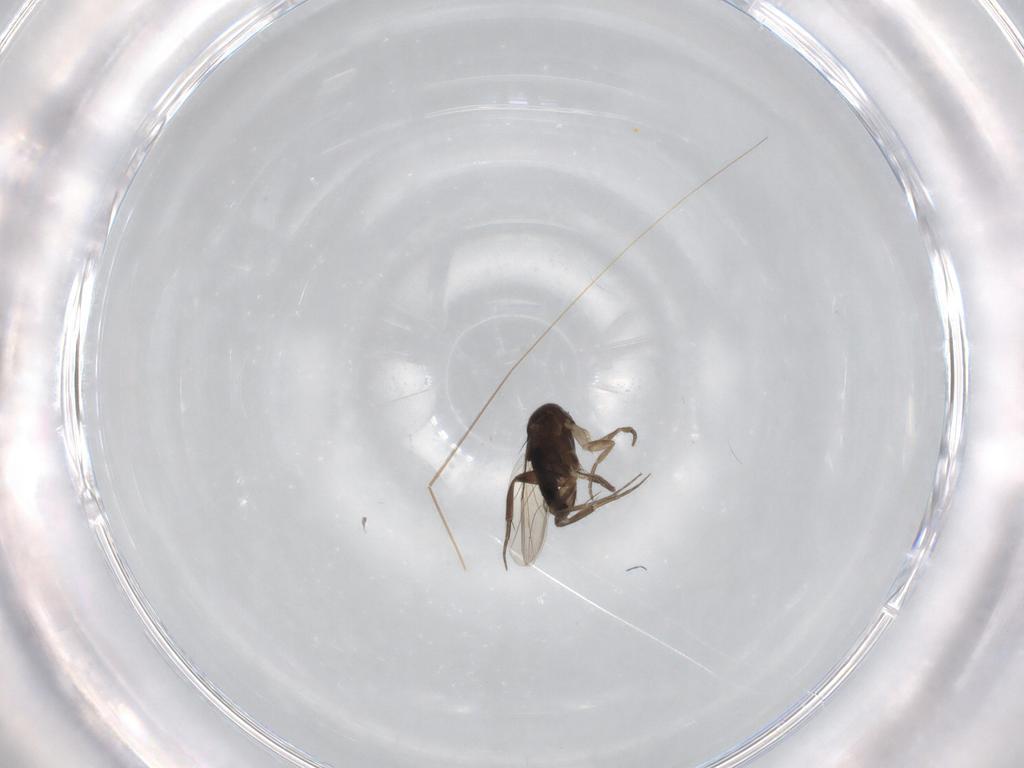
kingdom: Animalia
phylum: Arthropoda
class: Insecta
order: Diptera
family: Phoridae
